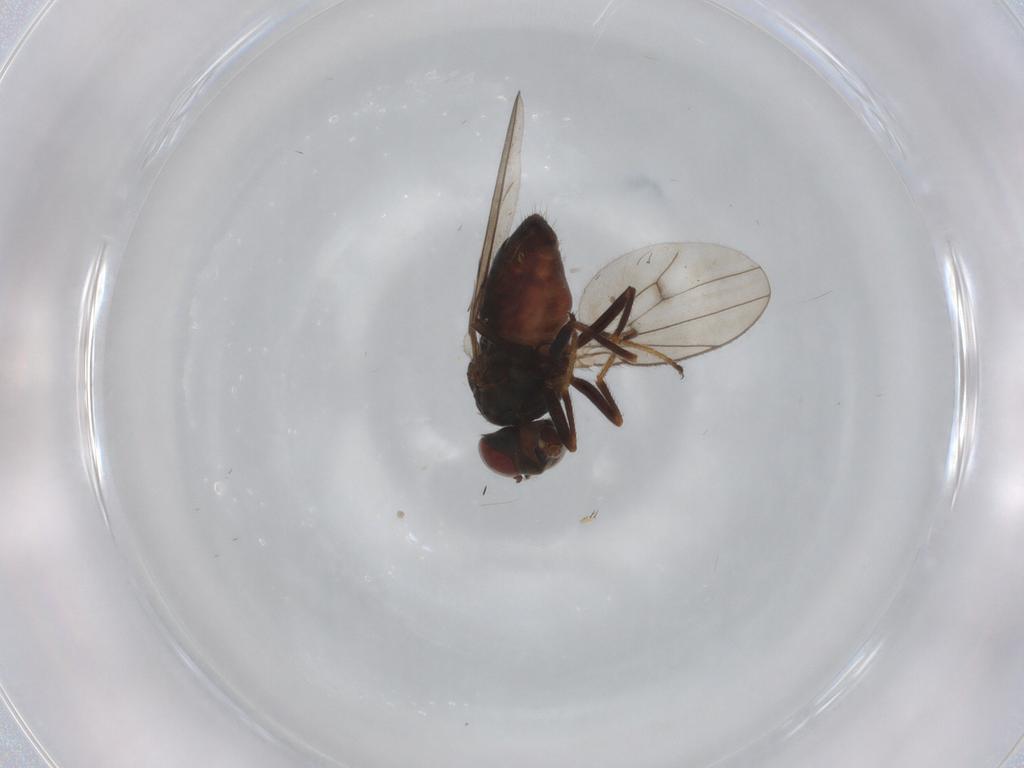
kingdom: Animalia
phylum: Arthropoda
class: Insecta
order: Diptera
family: Ephydridae
